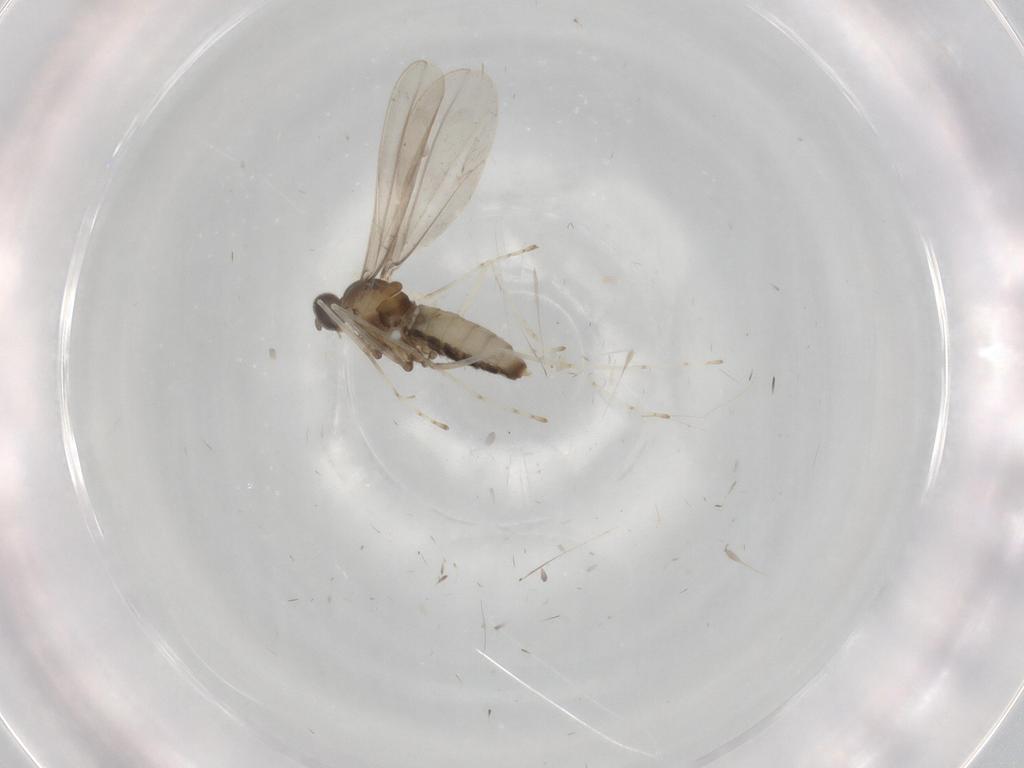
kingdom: Animalia
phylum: Arthropoda
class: Insecta
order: Diptera
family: Cecidomyiidae
